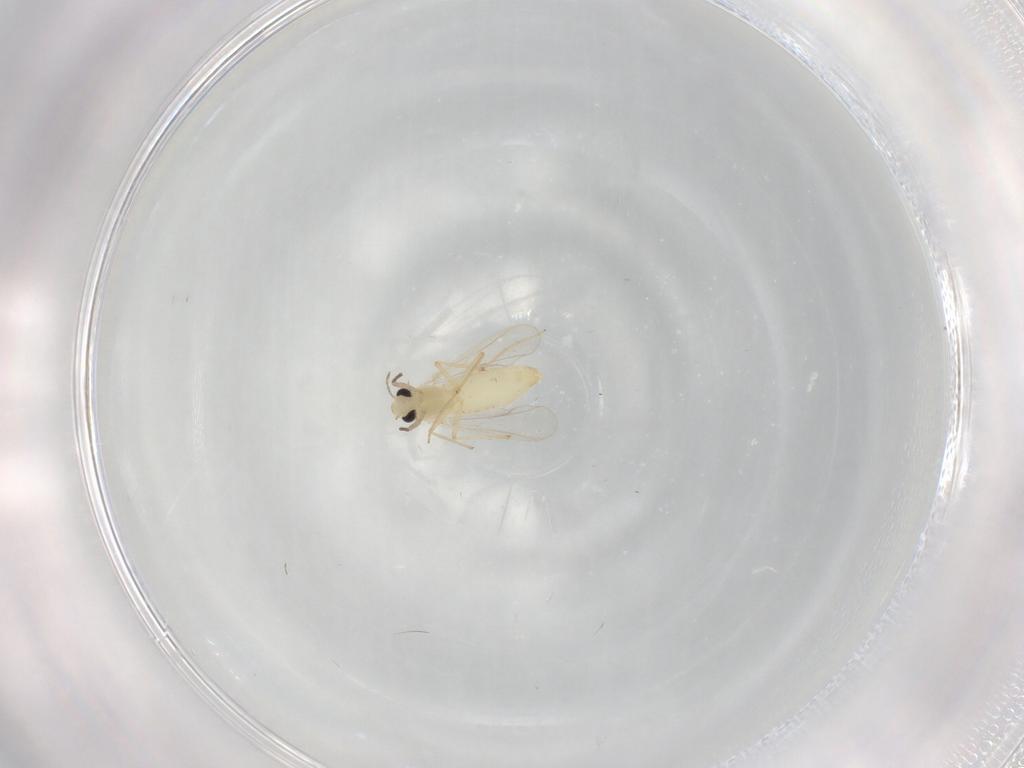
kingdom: Animalia
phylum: Arthropoda
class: Insecta
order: Diptera
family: Chironomidae
